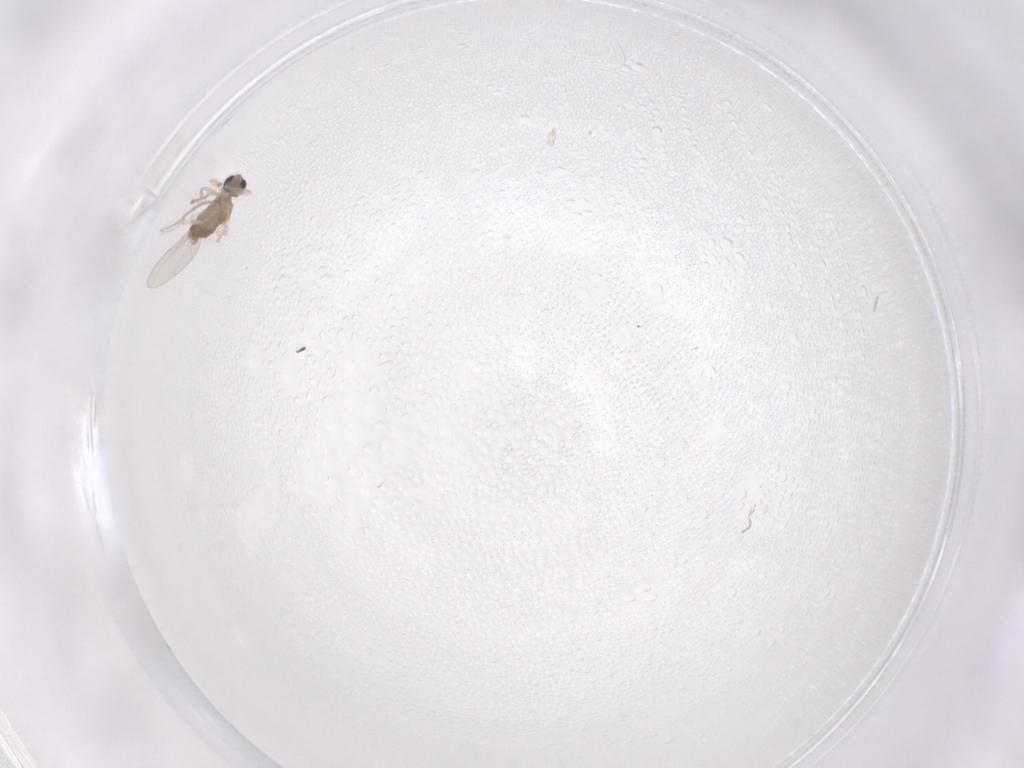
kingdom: Animalia
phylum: Arthropoda
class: Insecta
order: Diptera
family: Cecidomyiidae
